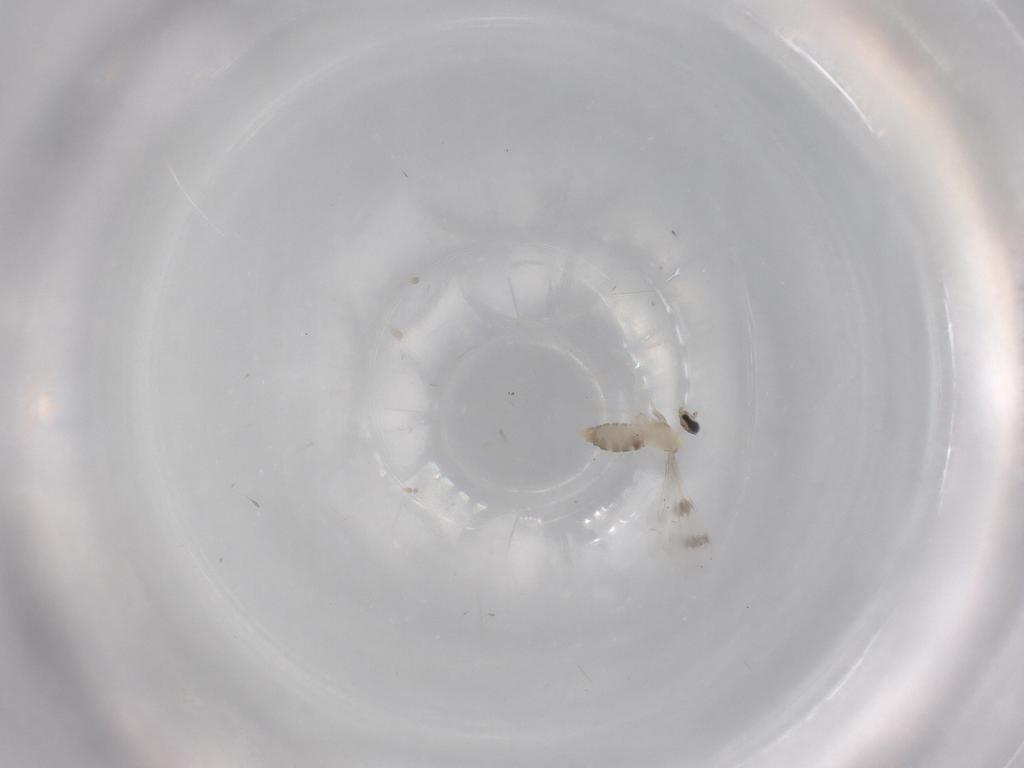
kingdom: Animalia
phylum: Arthropoda
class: Insecta
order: Diptera
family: Cecidomyiidae
